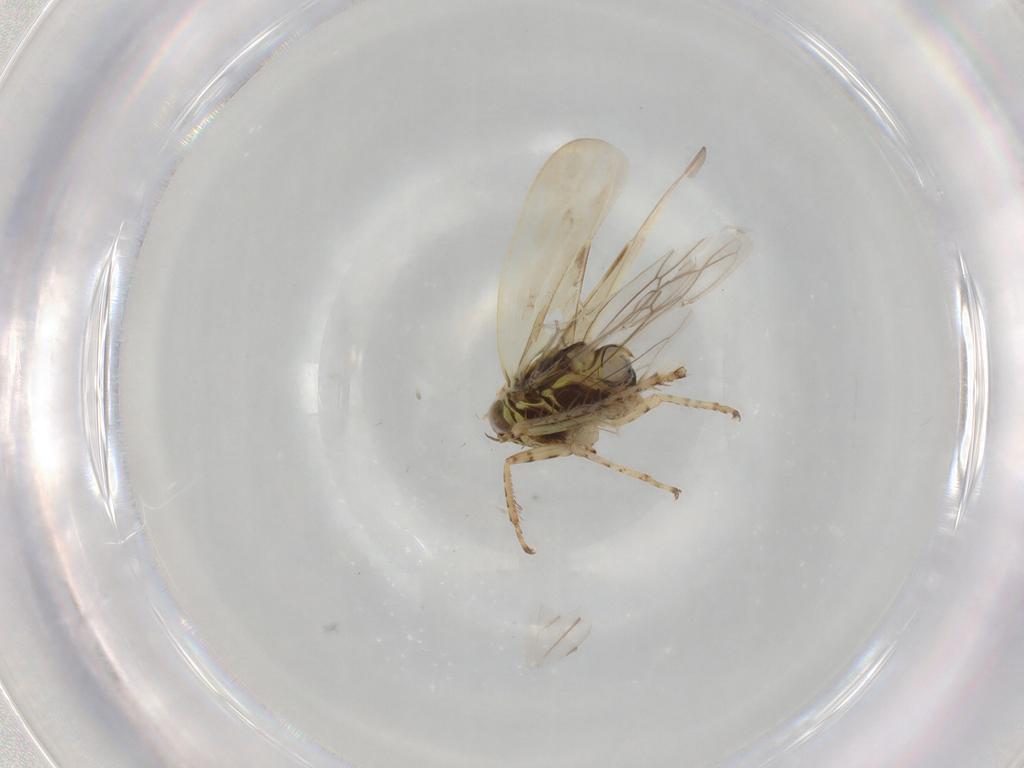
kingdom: Animalia
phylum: Arthropoda
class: Insecta
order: Hemiptera
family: Cicadellidae
